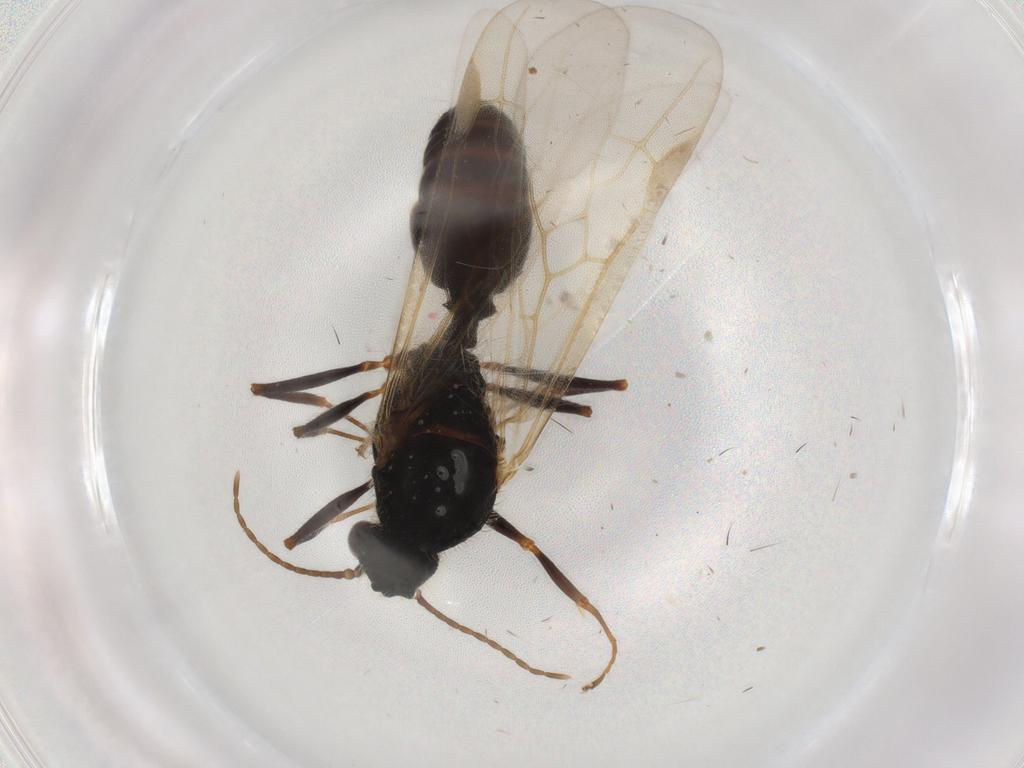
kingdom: Animalia
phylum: Arthropoda
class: Insecta
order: Hymenoptera
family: Formicidae
